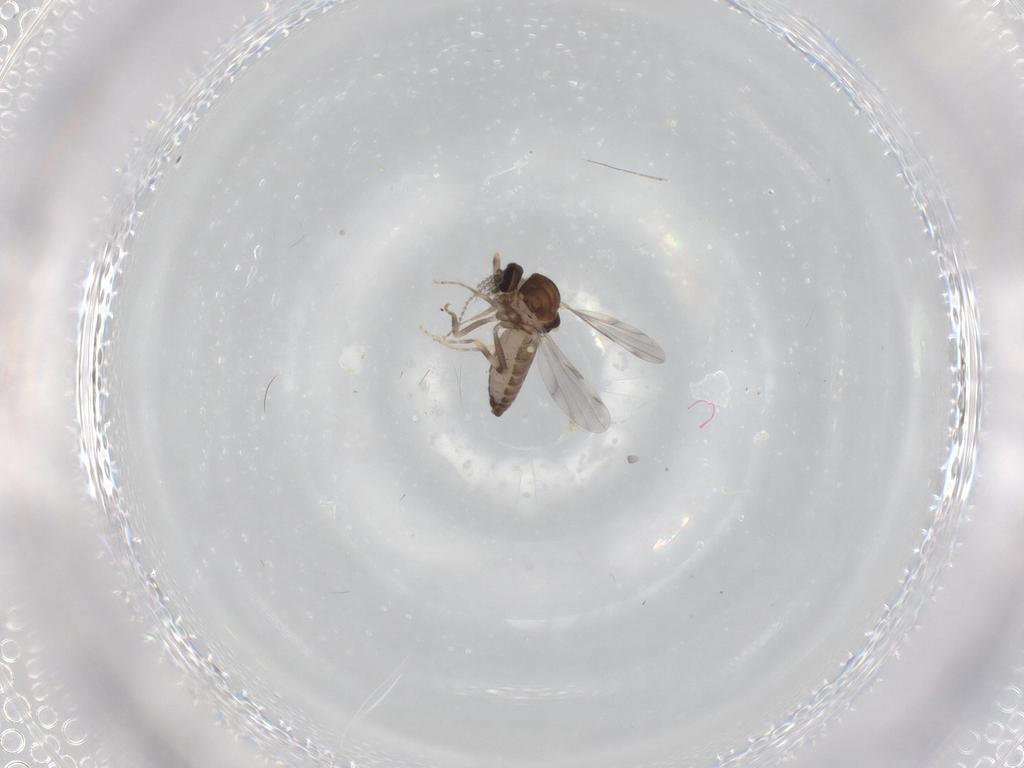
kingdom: Animalia
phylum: Arthropoda
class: Insecta
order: Diptera
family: Ceratopogonidae
